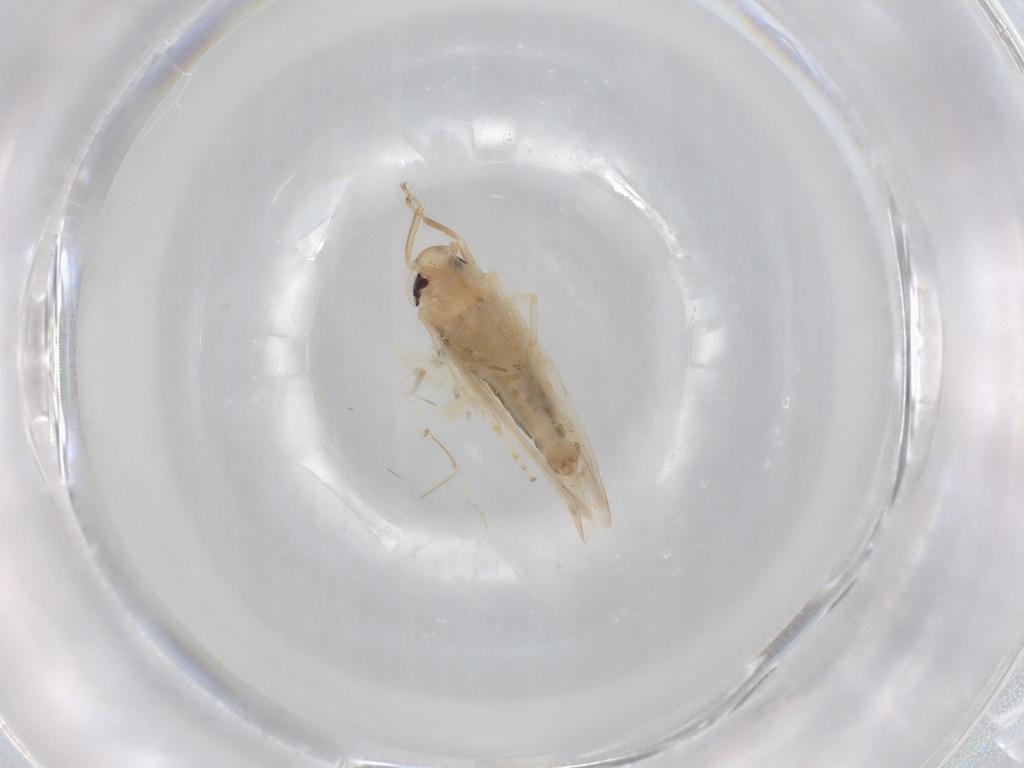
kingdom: Animalia
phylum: Arthropoda
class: Insecta
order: Hemiptera
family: Cicadellidae
